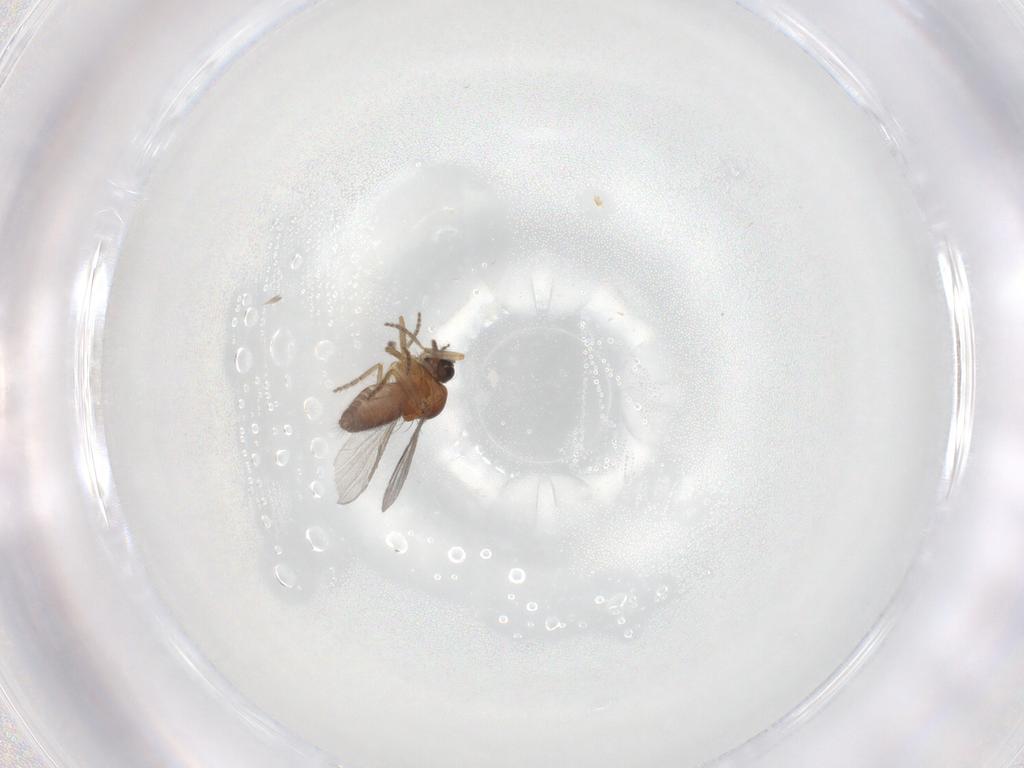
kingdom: Animalia
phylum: Arthropoda
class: Insecta
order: Diptera
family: Ceratopogonidae
